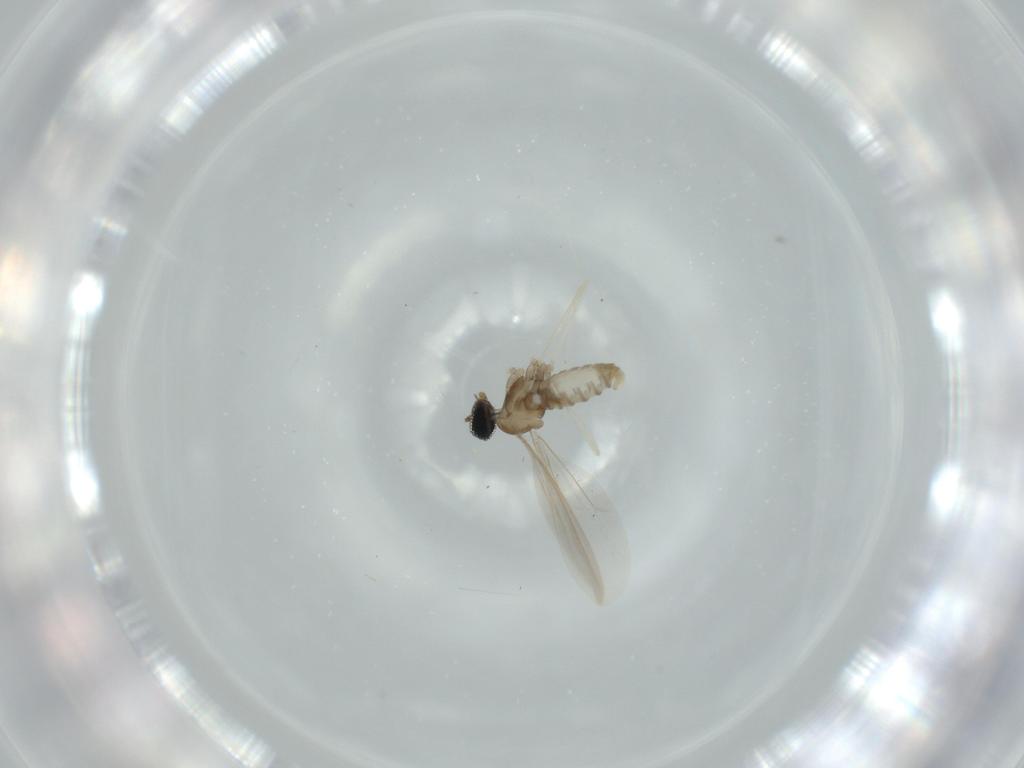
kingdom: Animalia
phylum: Arthropoda
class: Insecta
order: Diptera
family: Cecidomyiidae
